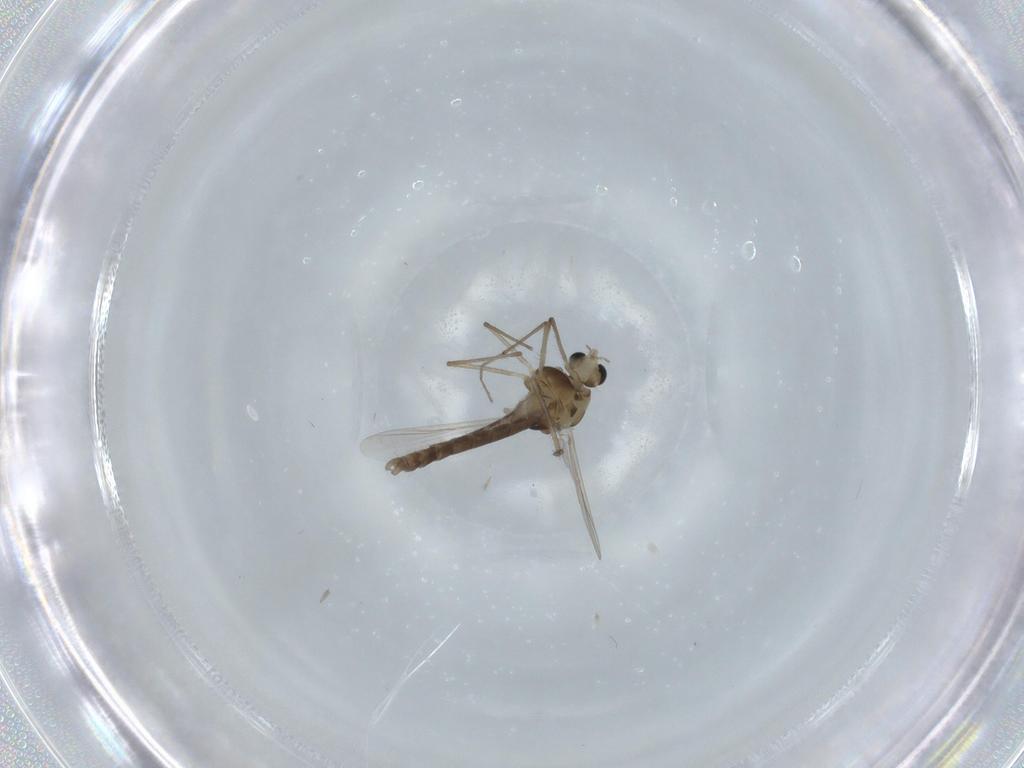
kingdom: Animalia
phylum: Arthropoda
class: Insecta
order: Diptera
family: Chironomidae
